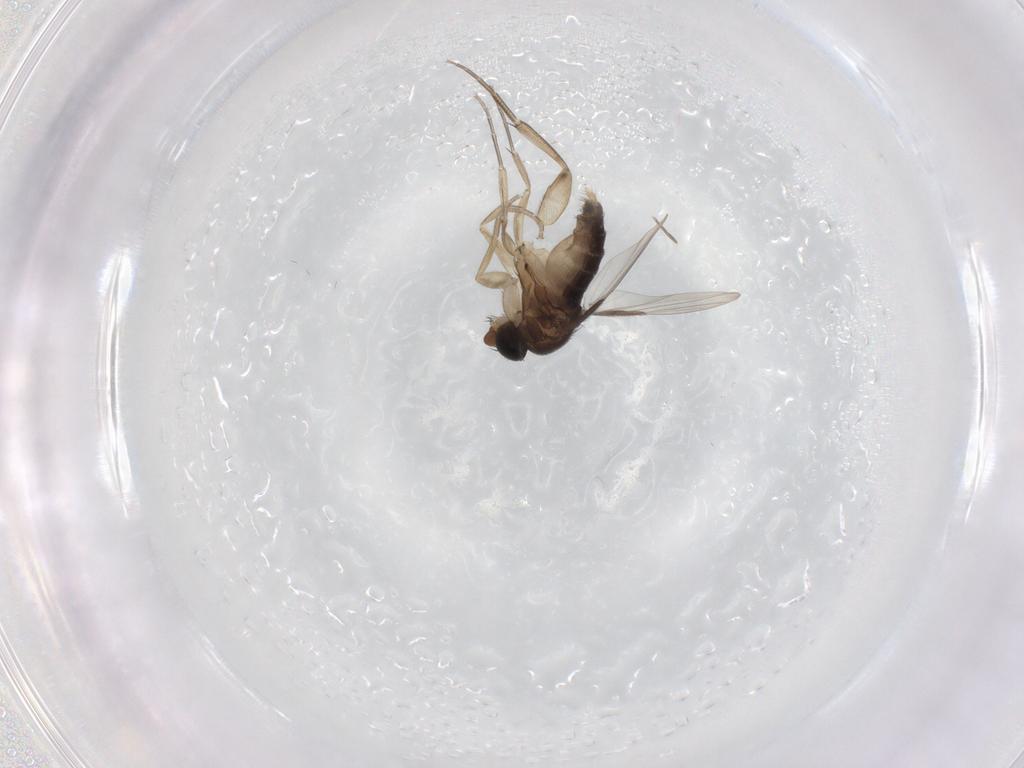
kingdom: Animalia
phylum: Arthropoda
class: Insecta
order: Diptera
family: Phoridae
